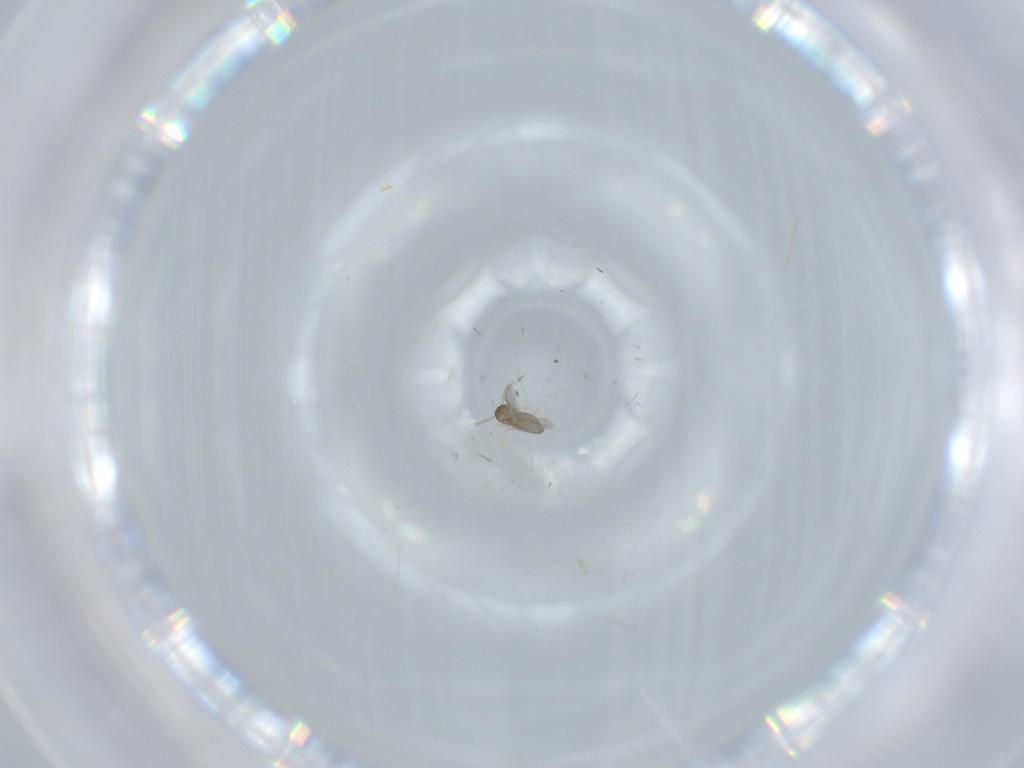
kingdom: Animalia
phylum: Arthropoda
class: Insecta
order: Diptera
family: Cecidomyiidae
